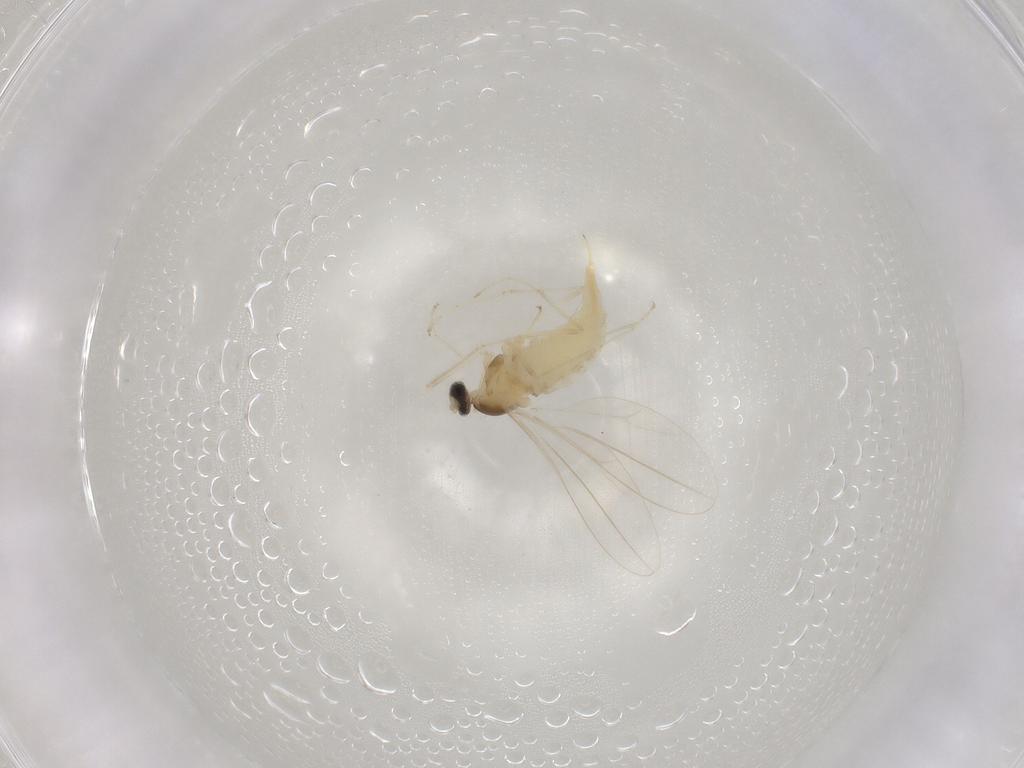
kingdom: Animalia
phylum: Arthropoda
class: Insecta
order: Diptera
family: Cecidomyiidae
